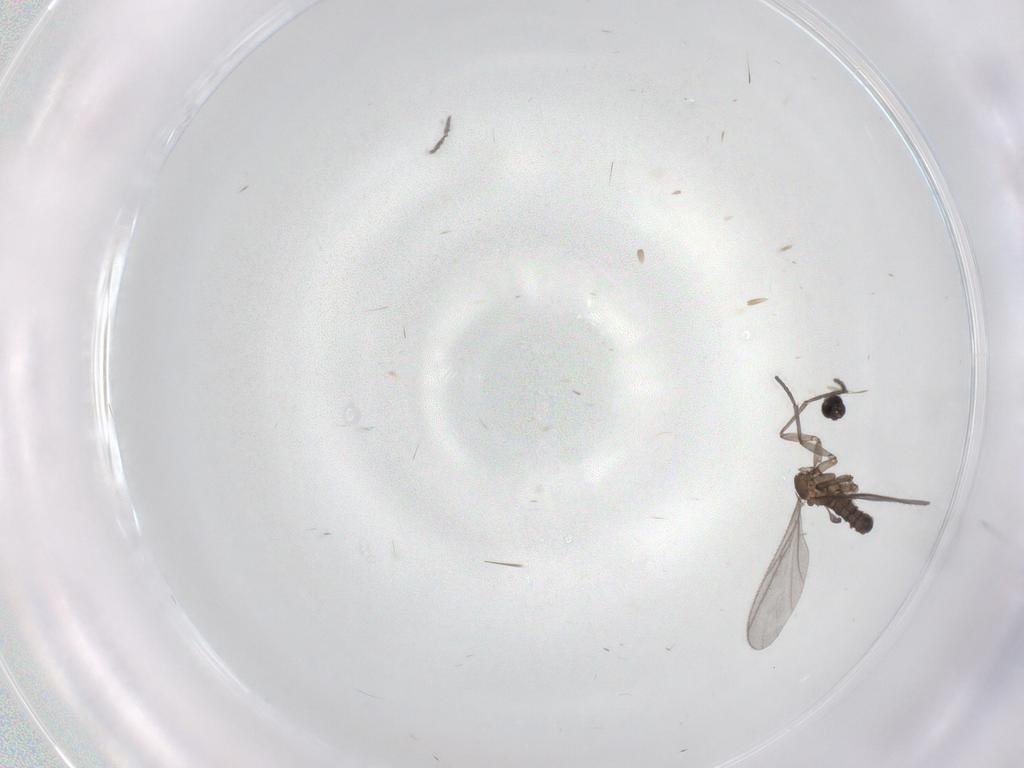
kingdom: Animalia
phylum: Arthropoda
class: Insecta
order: Diptera
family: Sciaridae
